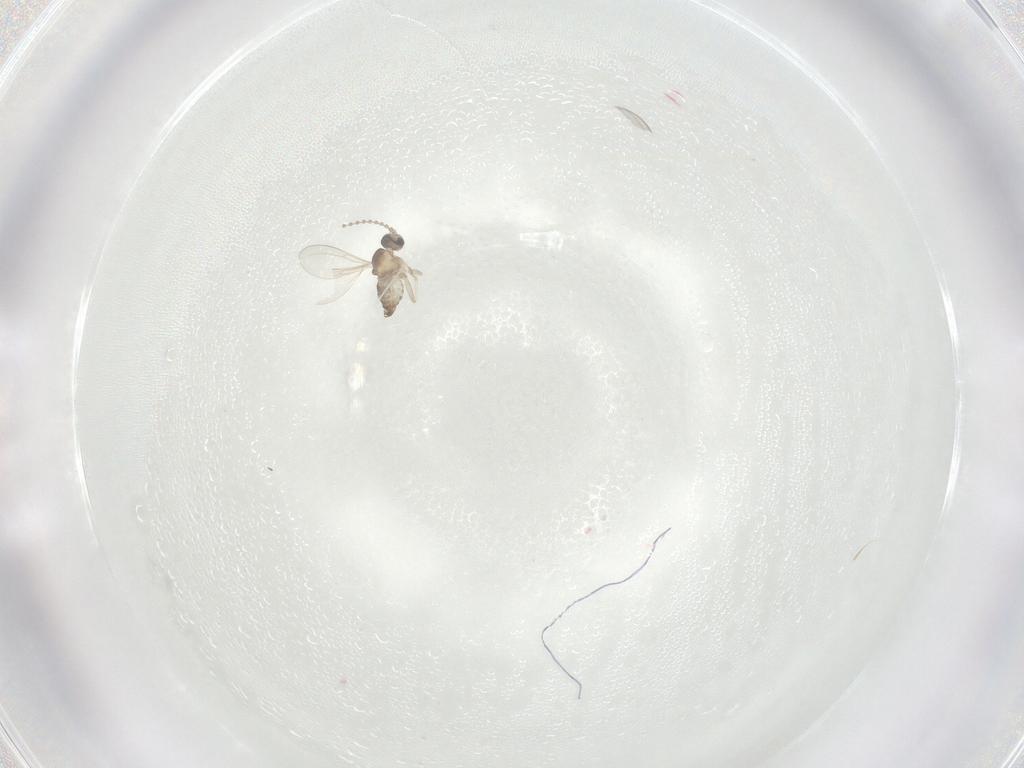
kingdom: Animalia
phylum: Arthropoda
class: Insecta
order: Diptera
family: Cecidomyiidae
